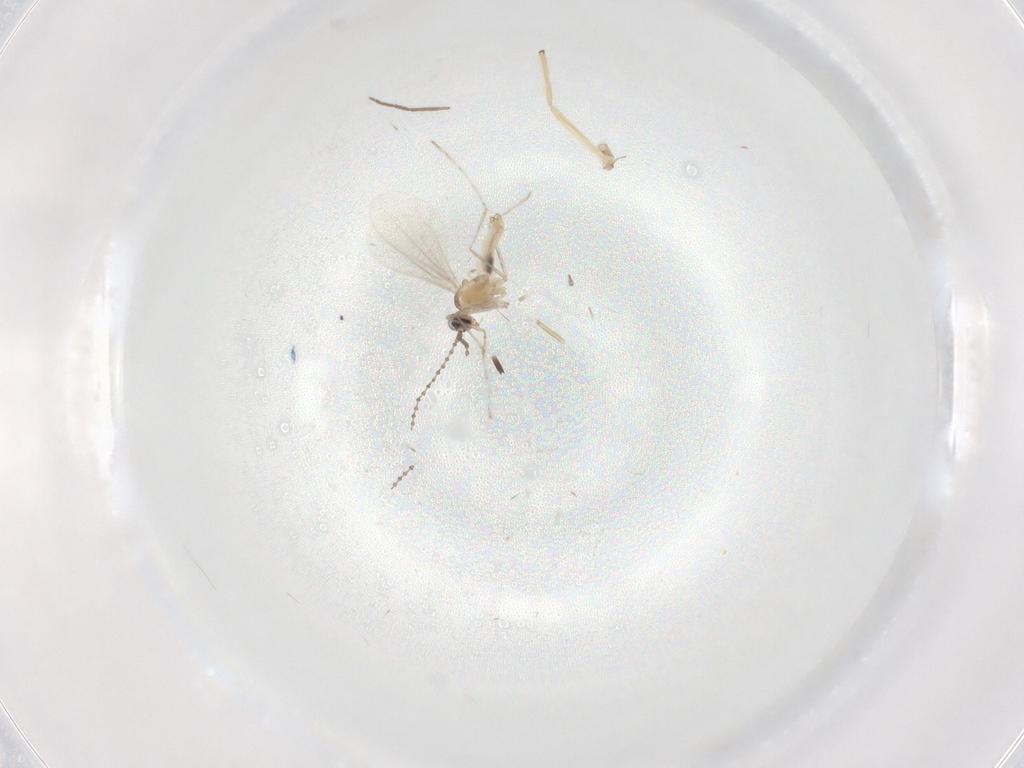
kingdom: Animalia
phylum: Arthropoda
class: Insecta
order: Diptera
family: Cecidomyiidae
